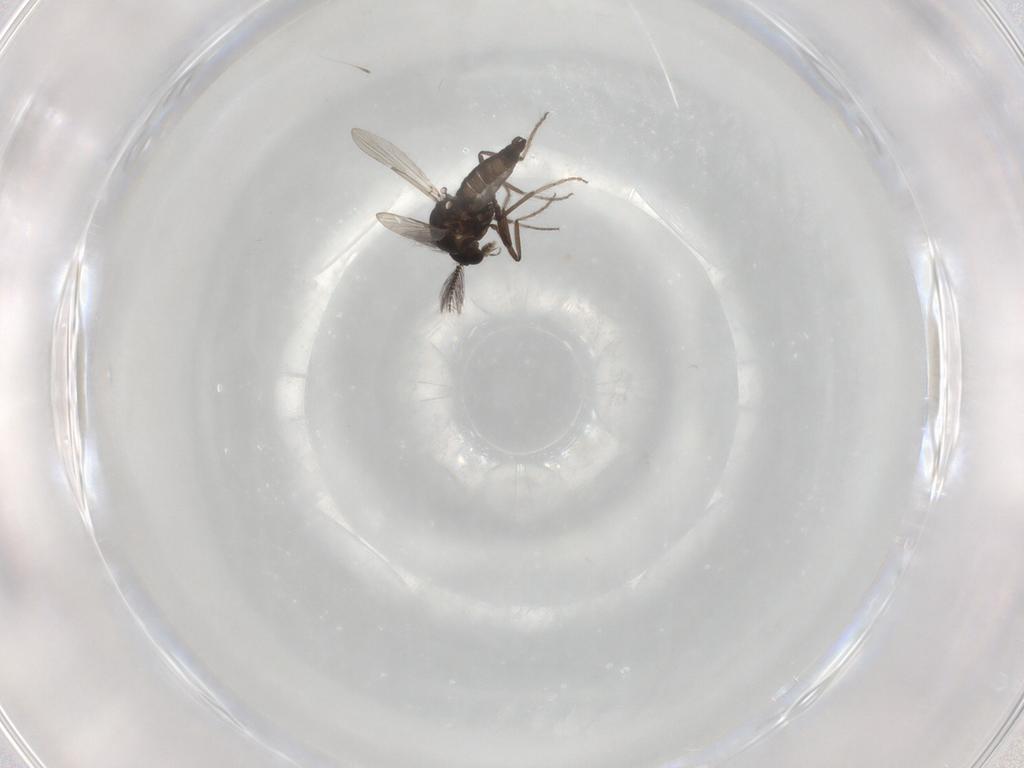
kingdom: Animalia
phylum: Arthropoda
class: Insecta
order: Diptera
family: Ceratopogonidae
